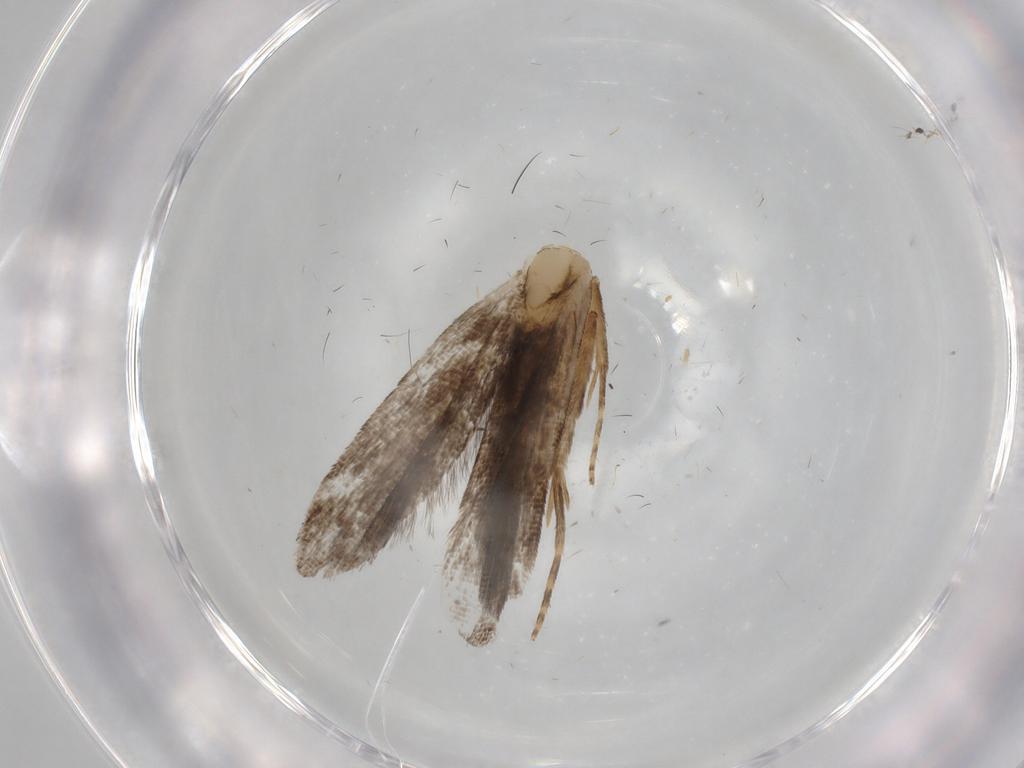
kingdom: Animalia
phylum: Arthropoda
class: Insecta
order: Lepidoptera
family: Gelechiidae
